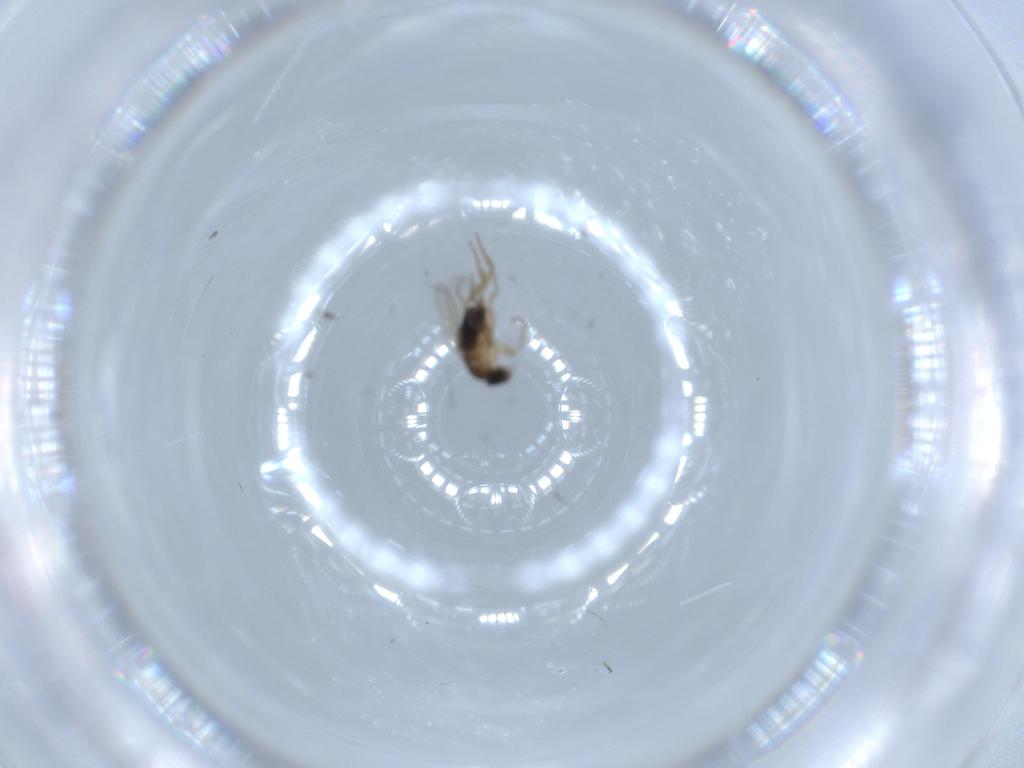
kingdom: Animalia
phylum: Arthropoda
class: Insecta
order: Diptera
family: Phoridae
